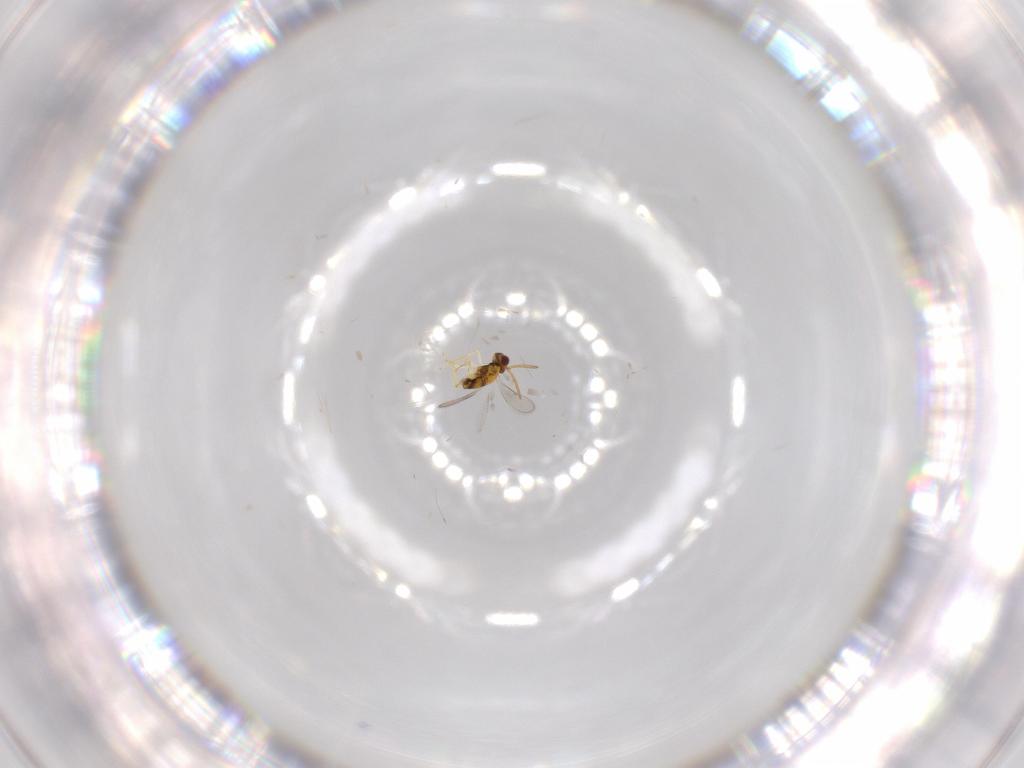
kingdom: Animalia
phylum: Arthropoda
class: Insecta
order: Hymenoptera
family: Aphelinidae
